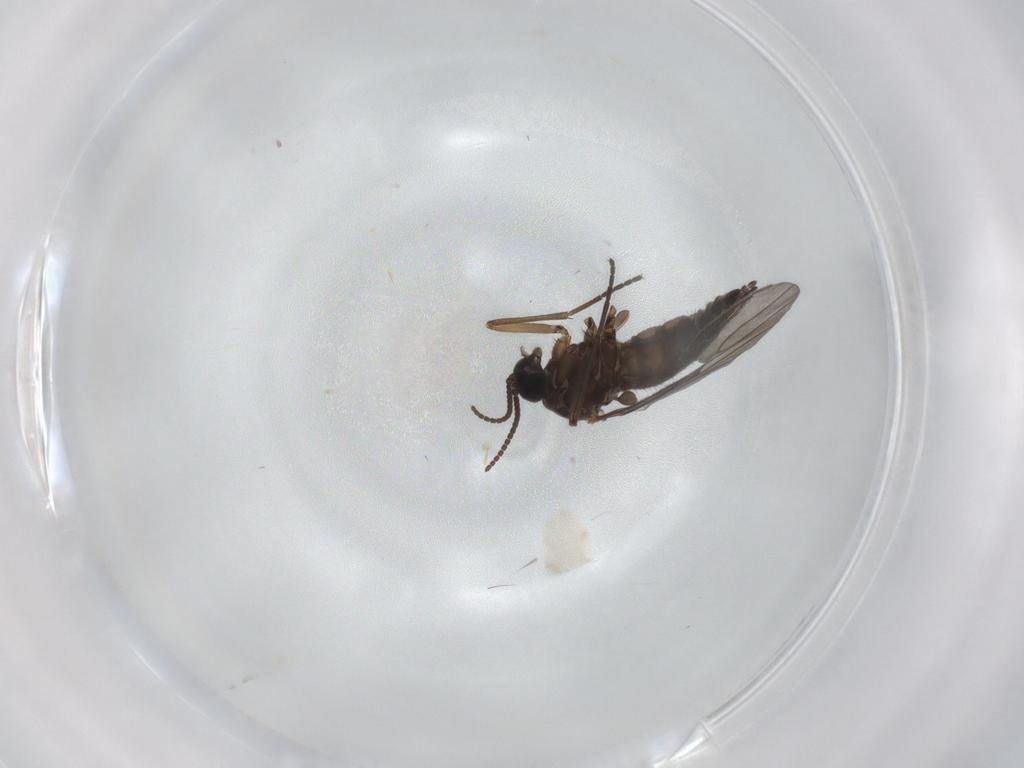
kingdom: Animalia
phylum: Arthropoda
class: Insecta
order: Diptera
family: Sciaridae
